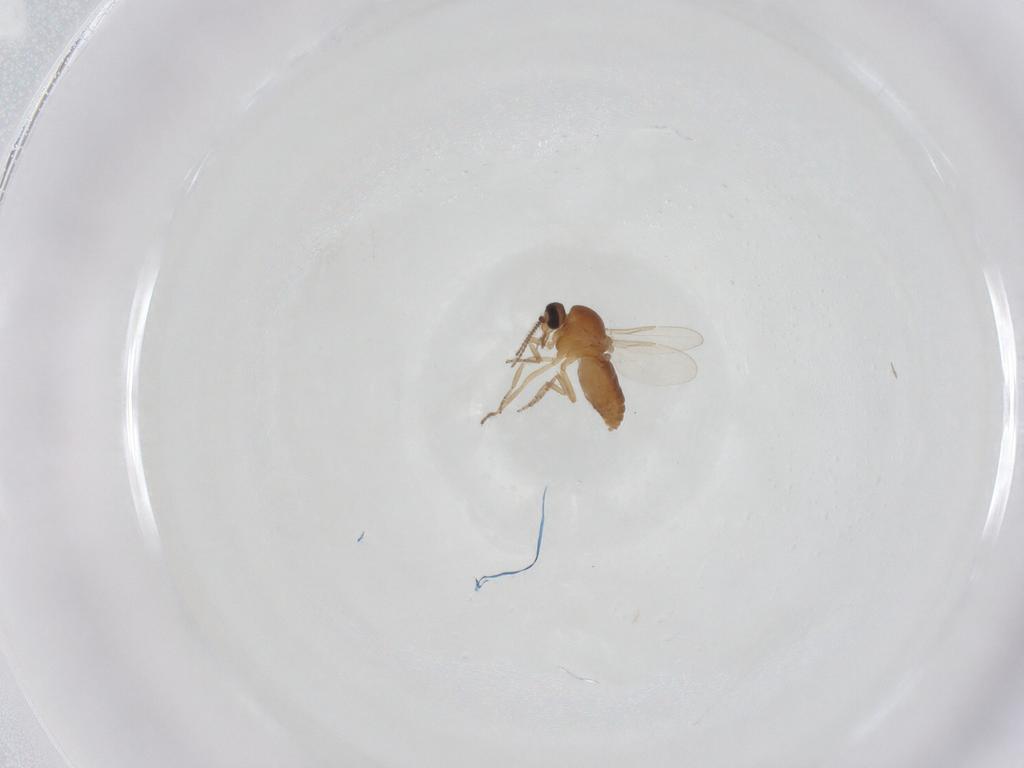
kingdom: Animalia
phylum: Arthropoda
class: Insecta
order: Diptera
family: Ceratopogonidae
